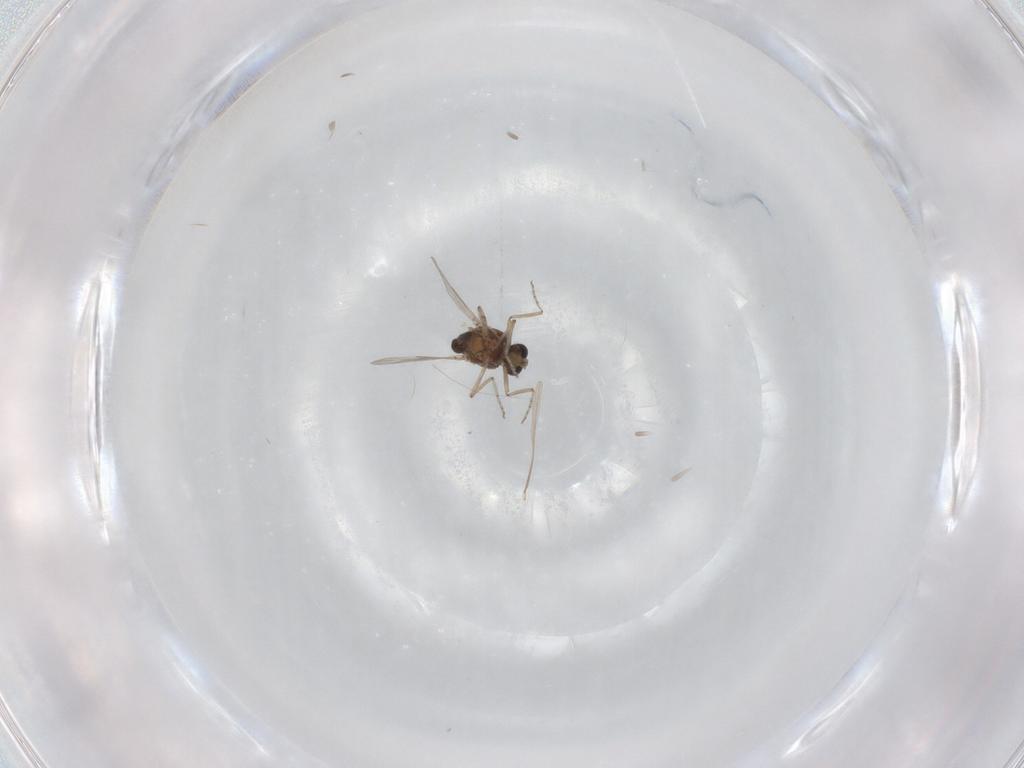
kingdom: Animalia
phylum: Arthropoda
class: Insecta
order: Diptera
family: Ceratopogonidae
